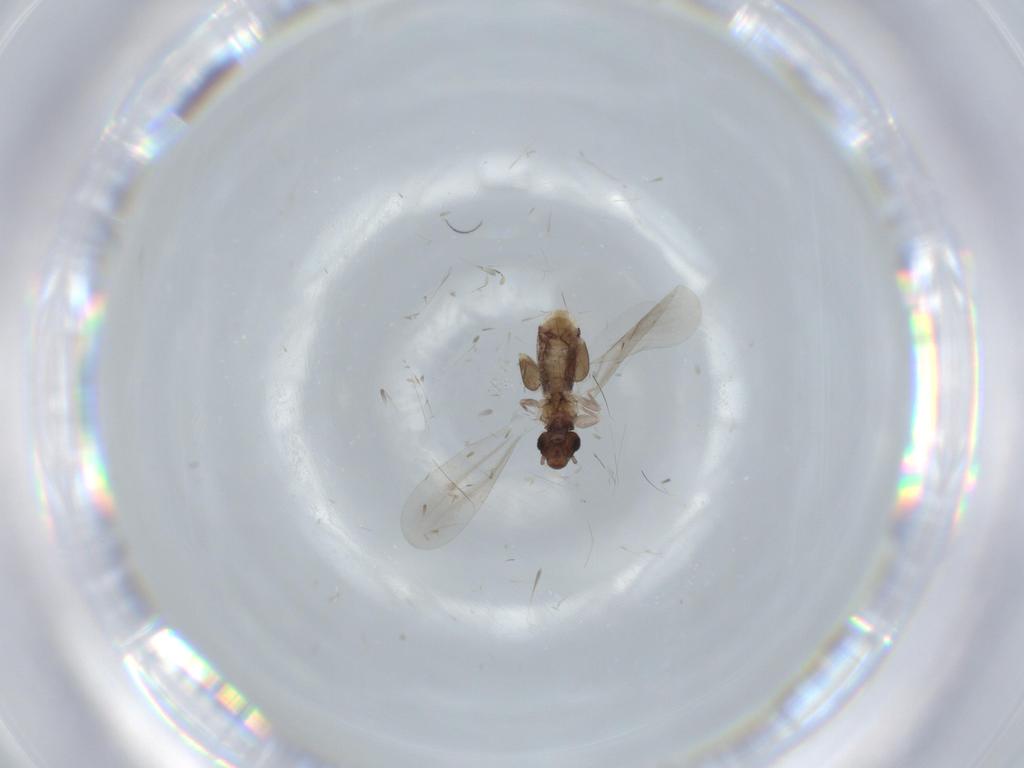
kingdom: Animalia
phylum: Arthropoda
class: Insecta
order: Psocodea
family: Liposcelididae
